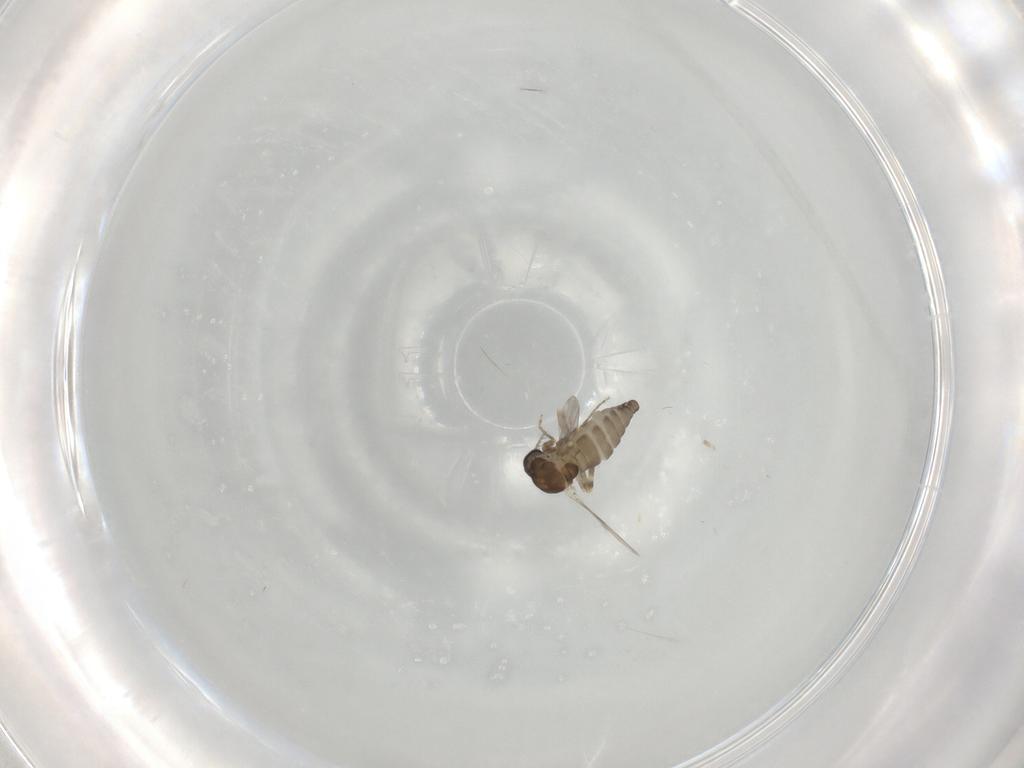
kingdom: Animalia
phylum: Arthropoda
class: Insecta
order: Diptera
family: Ceratopogonidae
